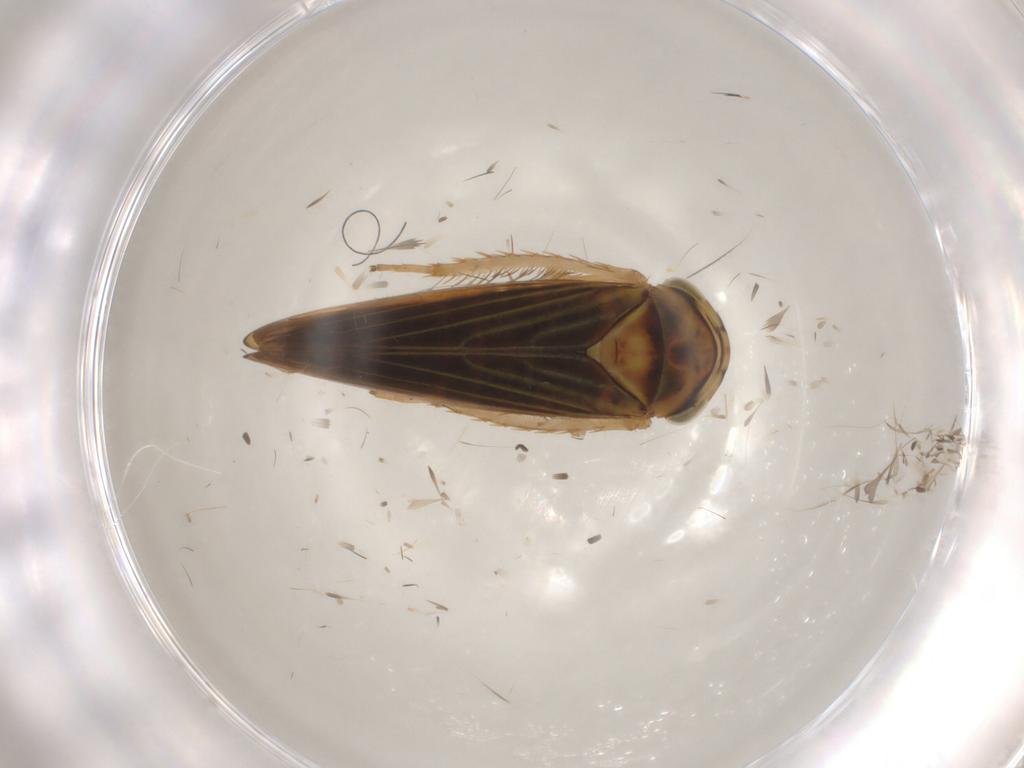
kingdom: Animalia
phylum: Arthropoda
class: Insecta
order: Hemiptera
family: Cicadellidae
